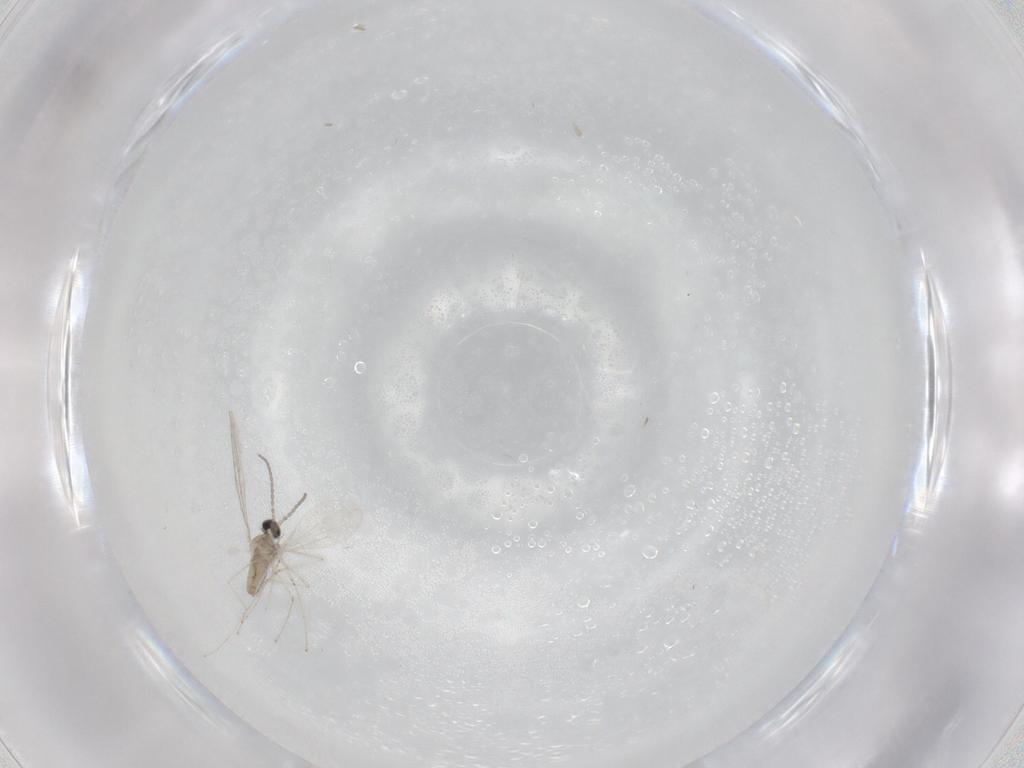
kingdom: Animalia
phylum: Arthropoda
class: Insecta
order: Diptera
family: Cecidomyiidae
